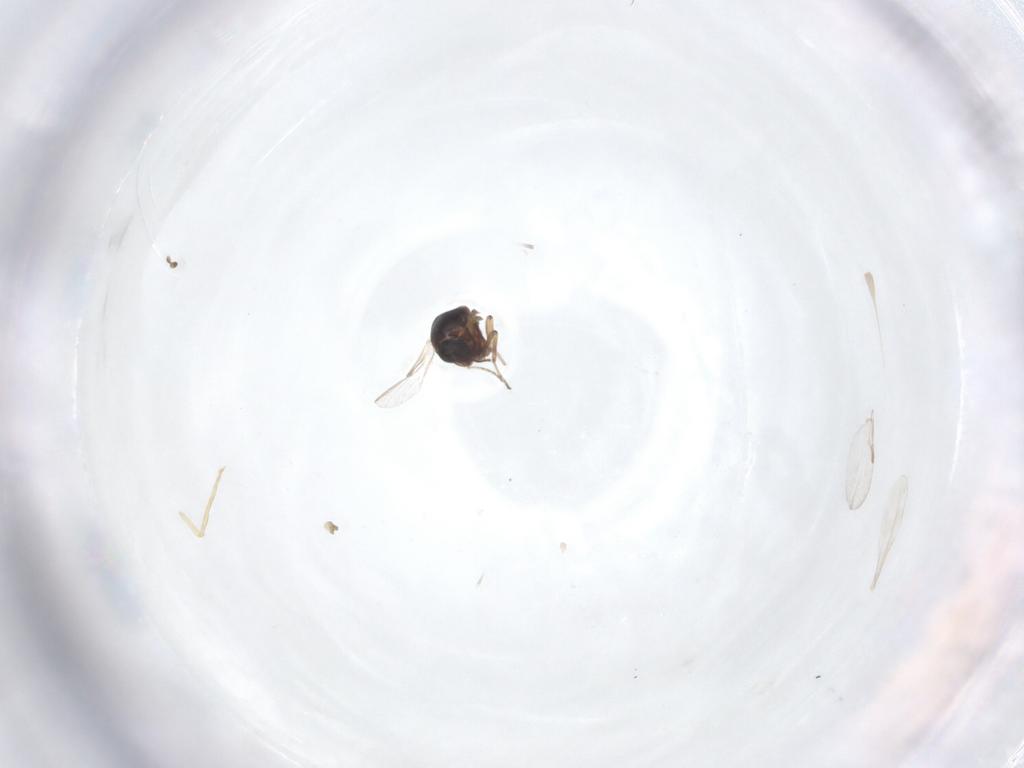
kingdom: Animalia
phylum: Arthropoda
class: Insecta
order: Diptera
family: Ceratopogonidae
